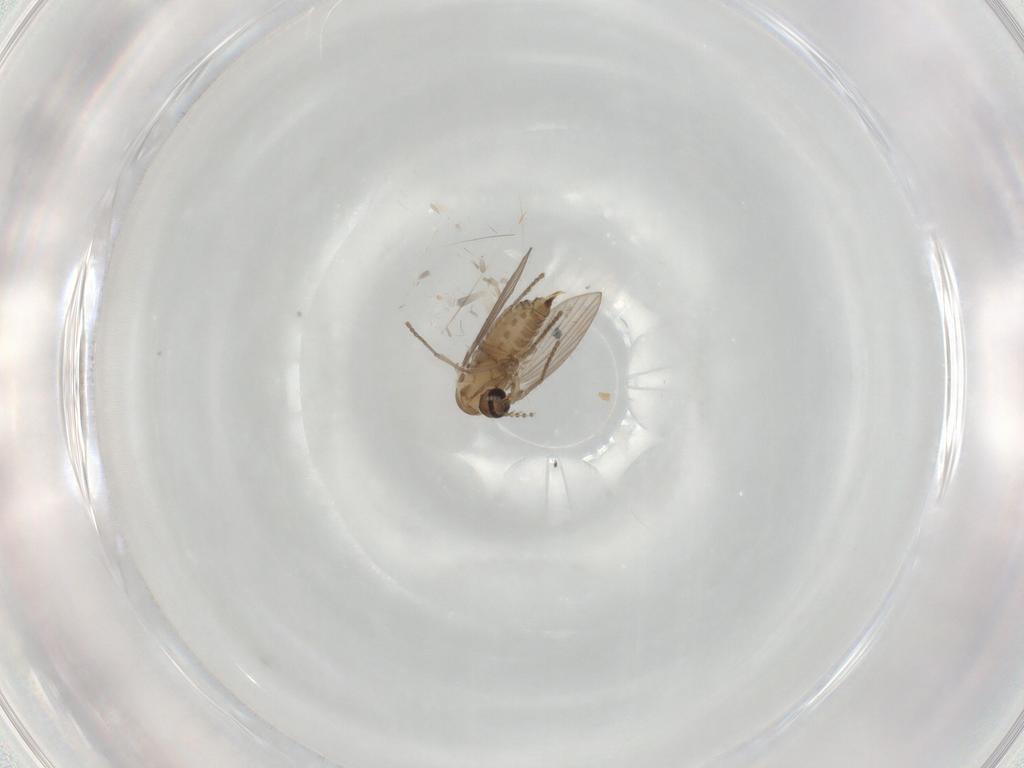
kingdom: Animalia
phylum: Arthropoda
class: Insecta
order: Diptera
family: Psychodidae
